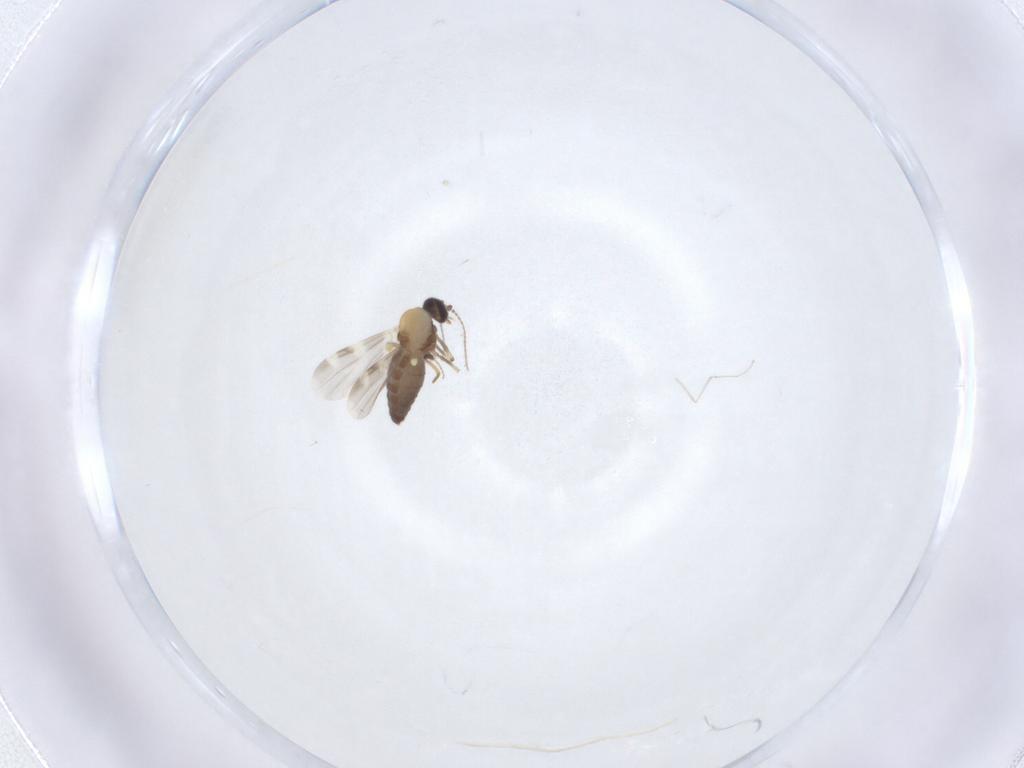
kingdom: Animalia
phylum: Arthropoda
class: Insecta
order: Diptera
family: Ceratopogonidae
